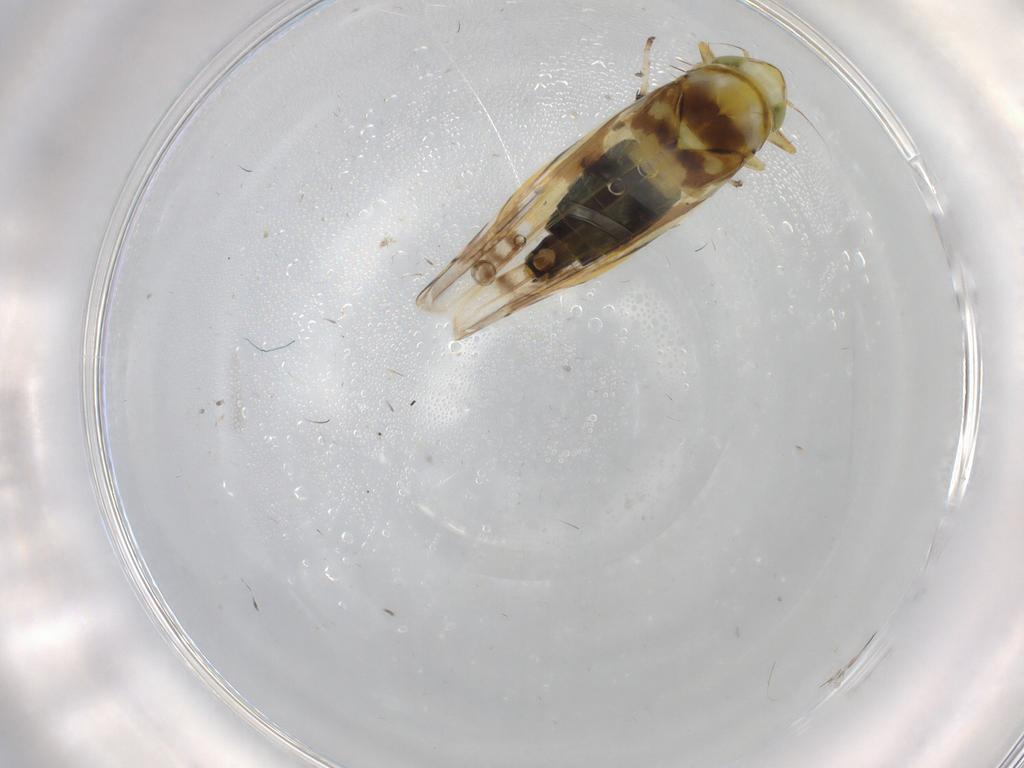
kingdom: Animalia
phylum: Arthropoda
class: Insecta
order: Hemiptera
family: Cicadellidae
